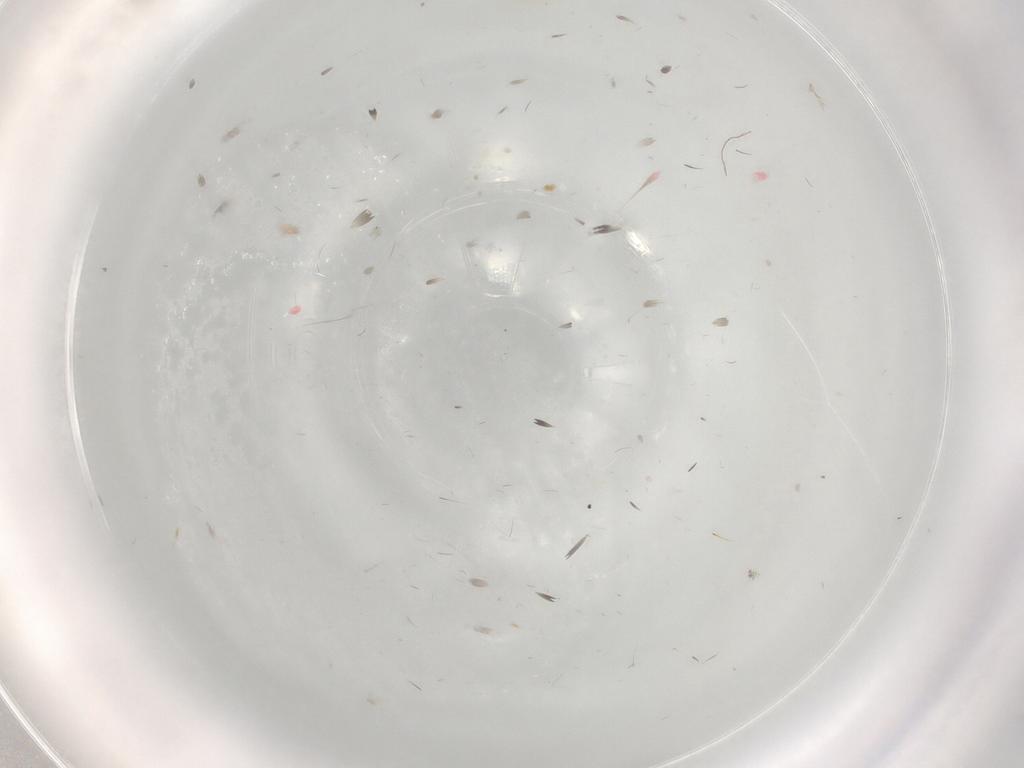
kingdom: Animalia
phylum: Arthropoda
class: Insecta
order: Hemiptera
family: Cicadellidae
